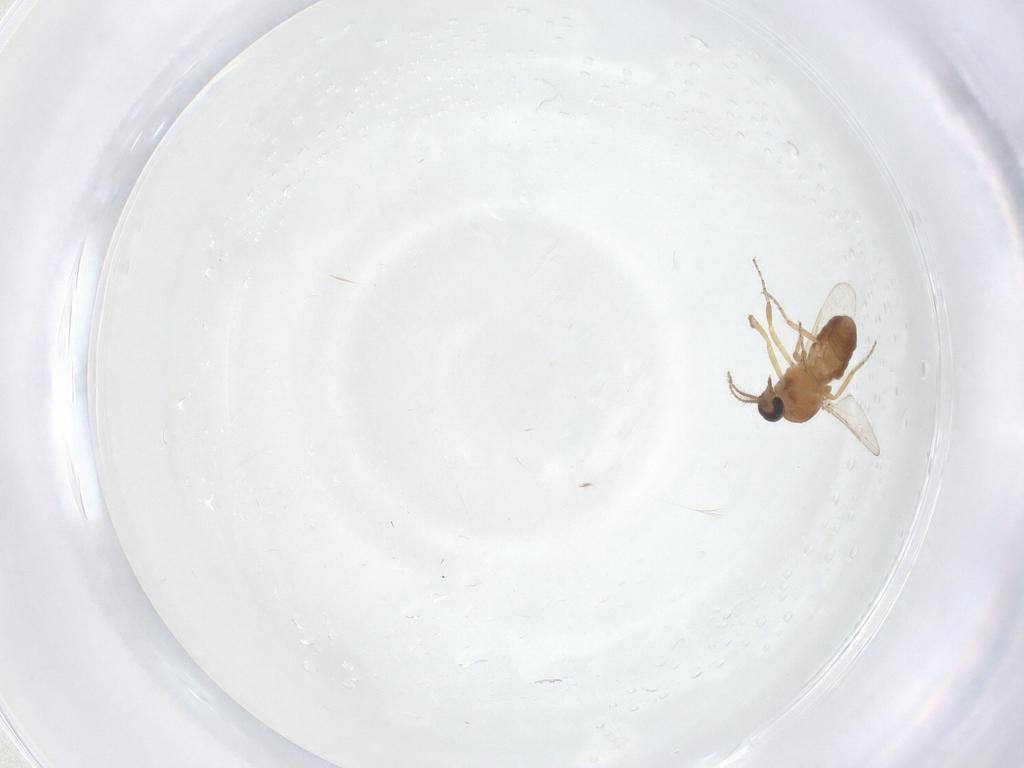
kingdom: Animalia
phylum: Arthropoda
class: Insecta
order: Diptera
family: Ceratopogonidae
